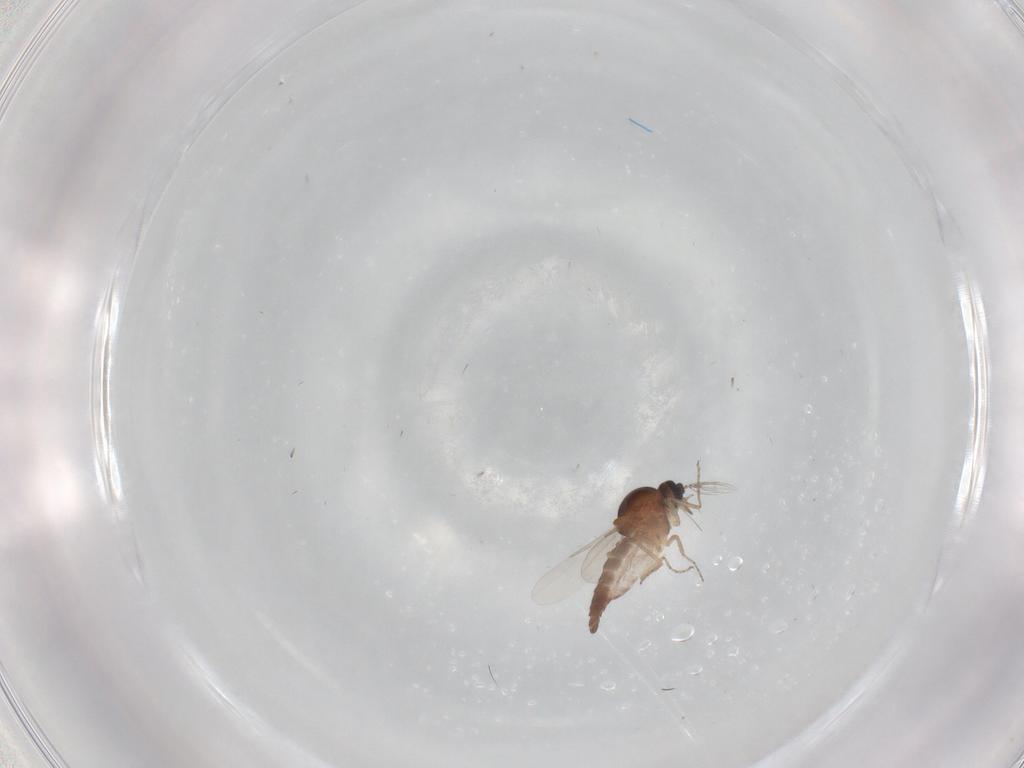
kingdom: Animalia
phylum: Arthropoda
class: Insecta
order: Diptera
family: Ceratopogonidae
